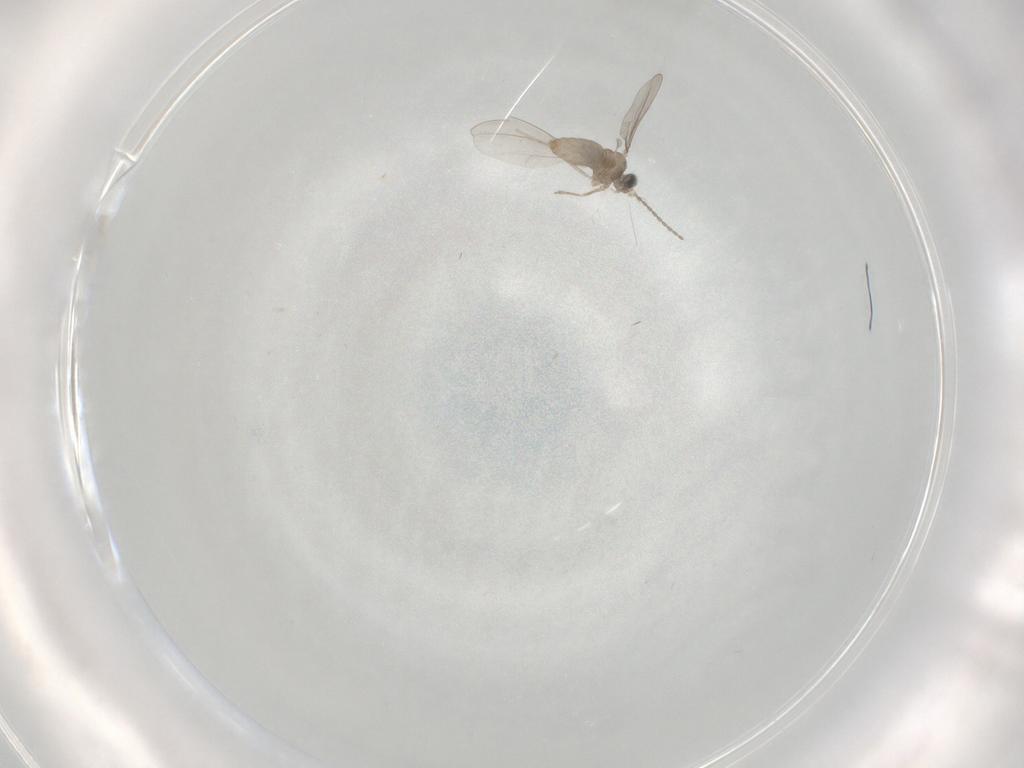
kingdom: Animalia
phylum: Arthropoda
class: Insecta
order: Diptera
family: Cecidomyiidae
